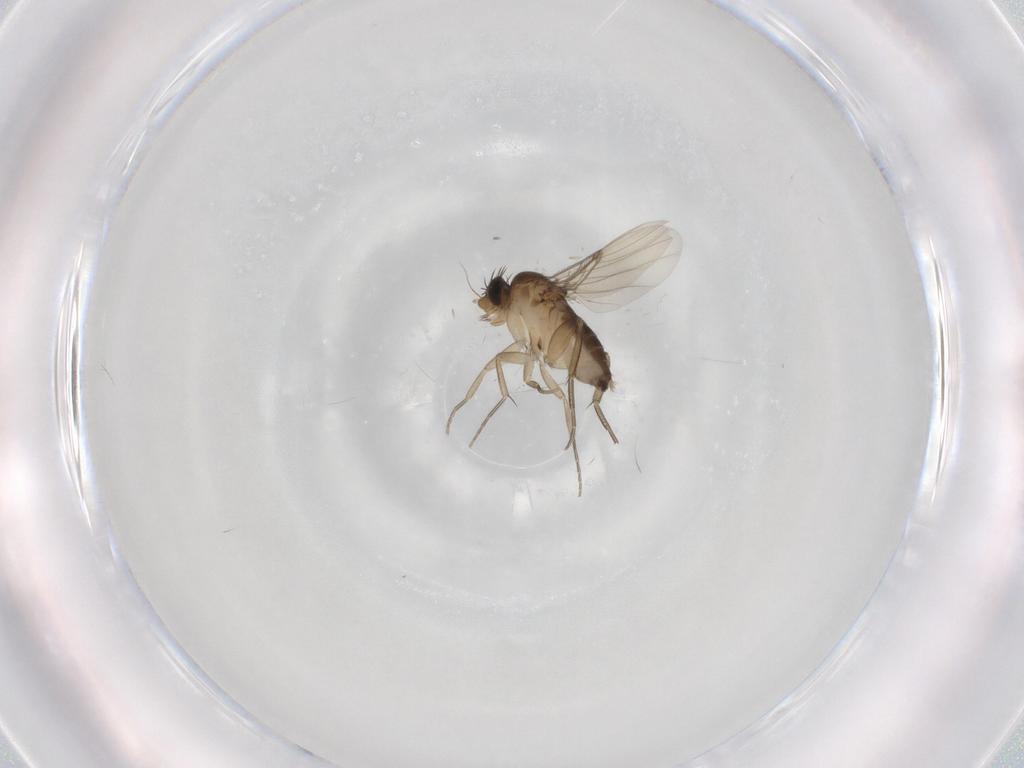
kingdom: Animalia
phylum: Arthropoda
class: Insecta
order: Diptera
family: Phoridae
